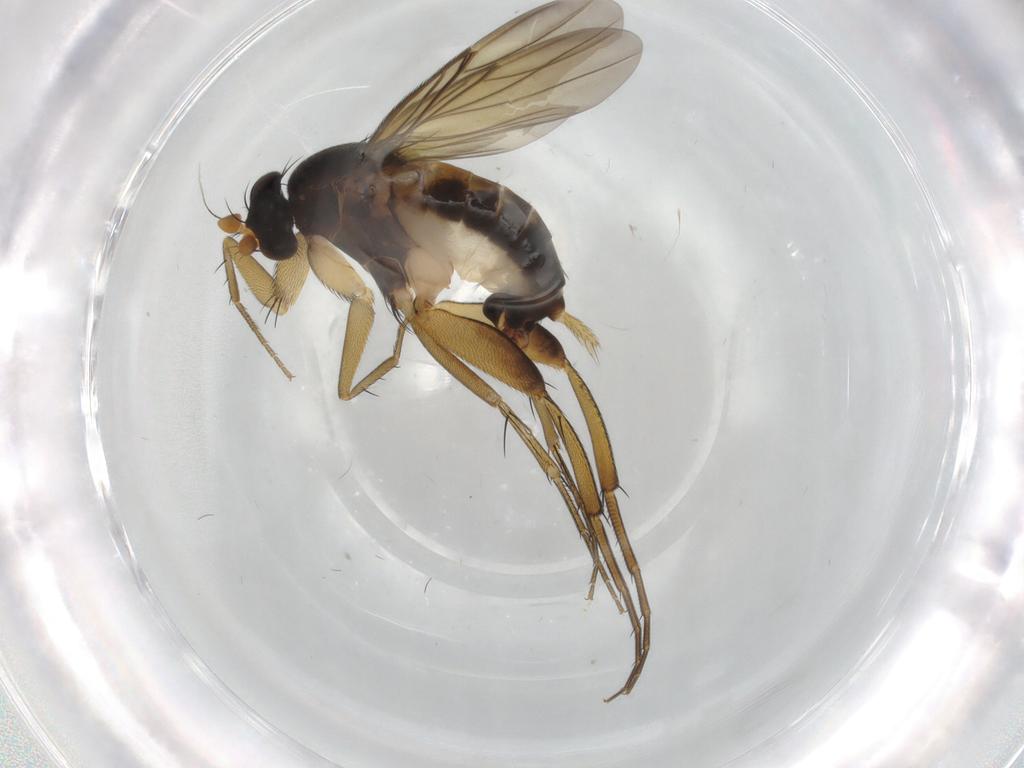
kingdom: Animalia
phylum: Arthropoda
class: Insecta
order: Diptera
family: Phoridae
